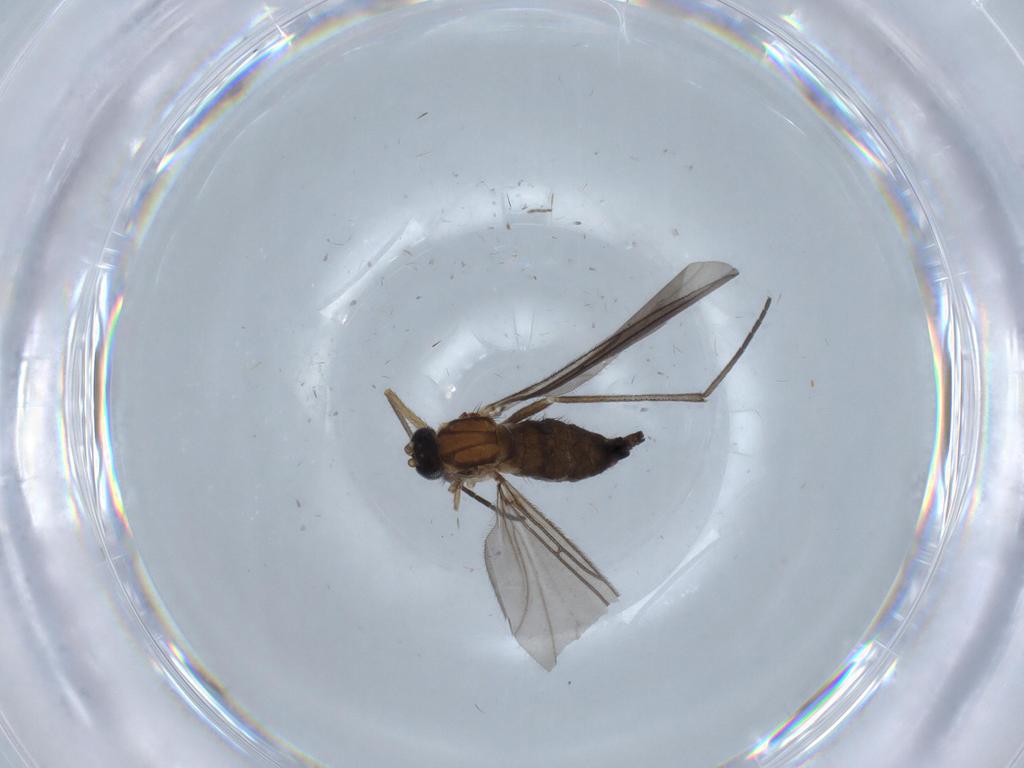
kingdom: Animalia
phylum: Arthropoda
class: Insecta
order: Diptera
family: Sciaridae
